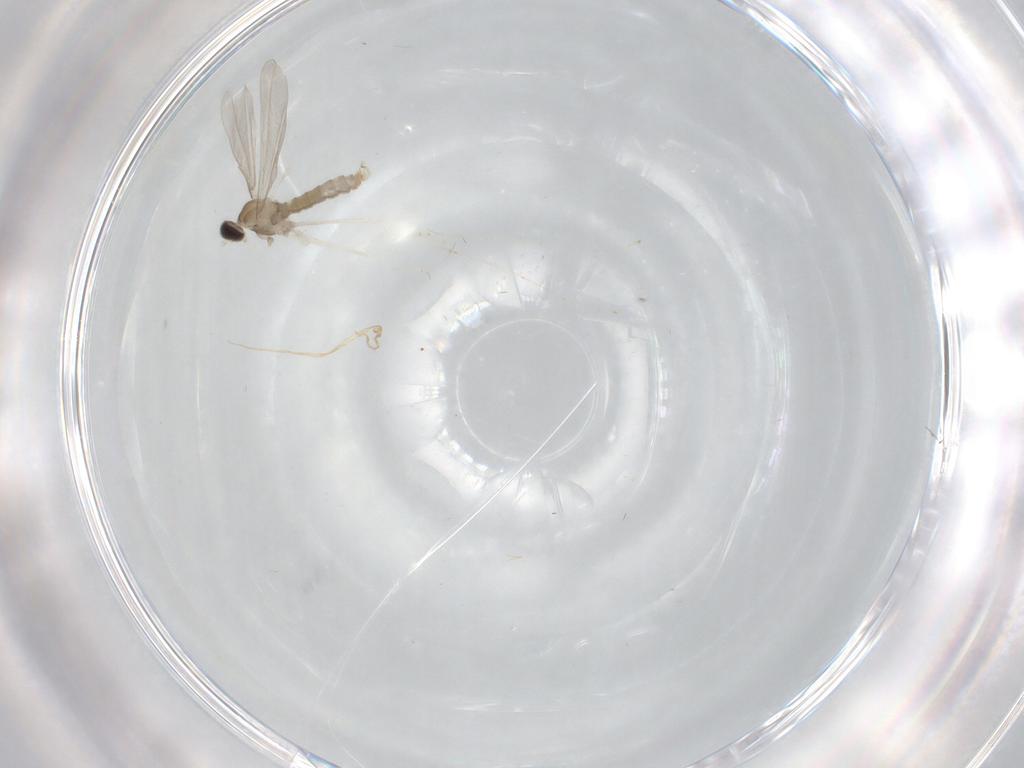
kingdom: Animalia
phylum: Arthropoda
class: Insecta
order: Diptera
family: Cecidomyiidae
